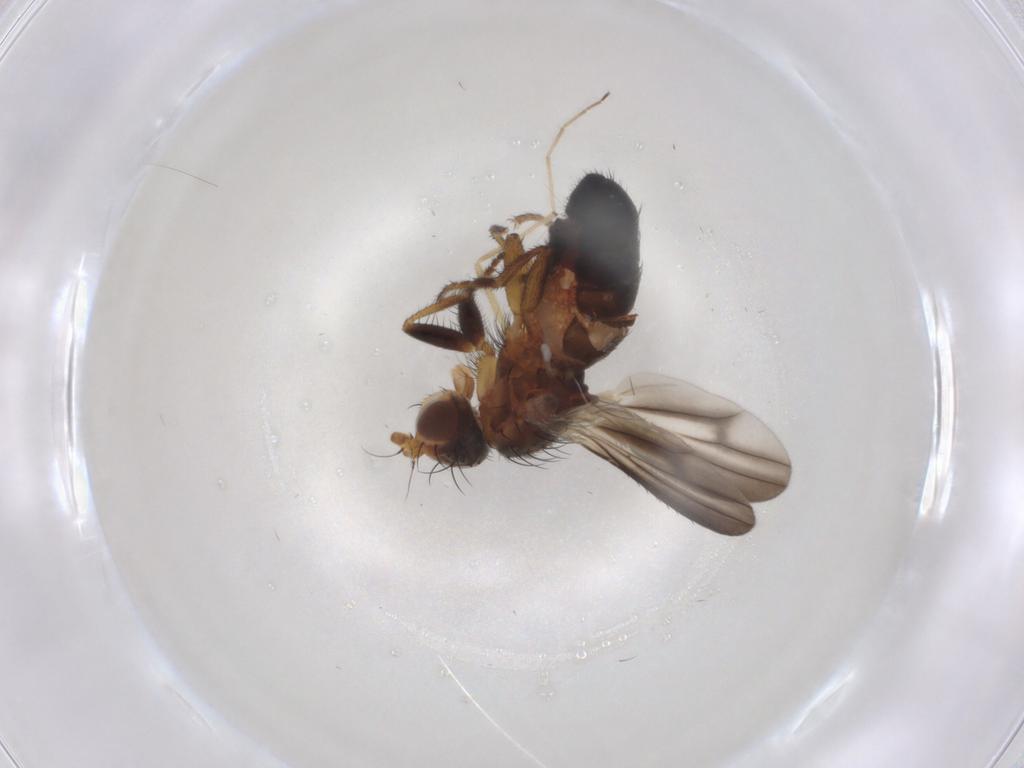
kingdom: Animalia
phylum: Arthropoda
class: Insecta
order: Diptera
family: Heleomyzidae
